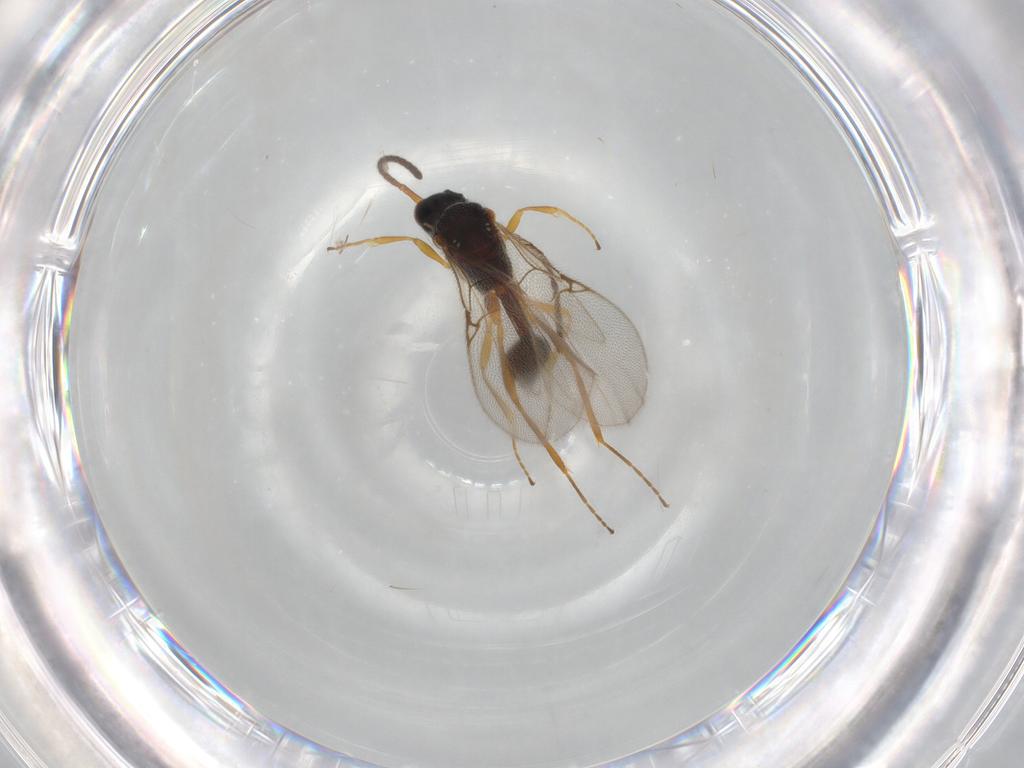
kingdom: Animalia
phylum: Arthropoda
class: Insecta
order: Hymenoptera
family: Diapriidae
